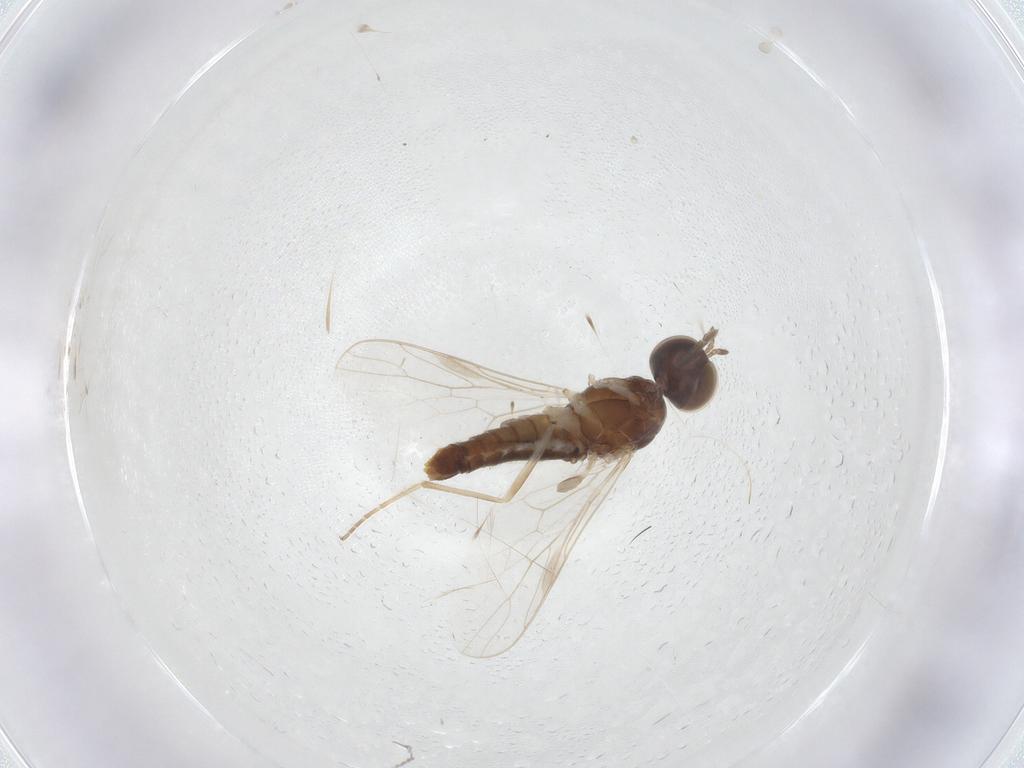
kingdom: Animalia
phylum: Arthropoda
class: Insecta
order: Diptera
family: Scenopinidae
